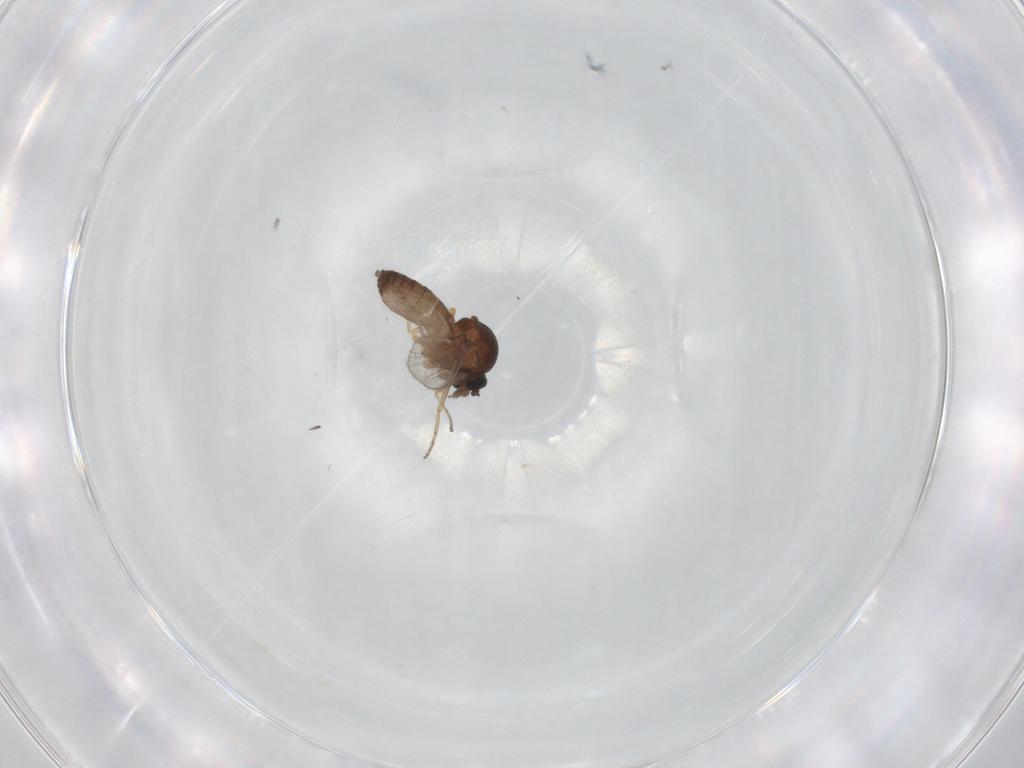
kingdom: Animalia
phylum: Arthropoda
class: Insecta
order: Diptera
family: Ceratopogonidae
